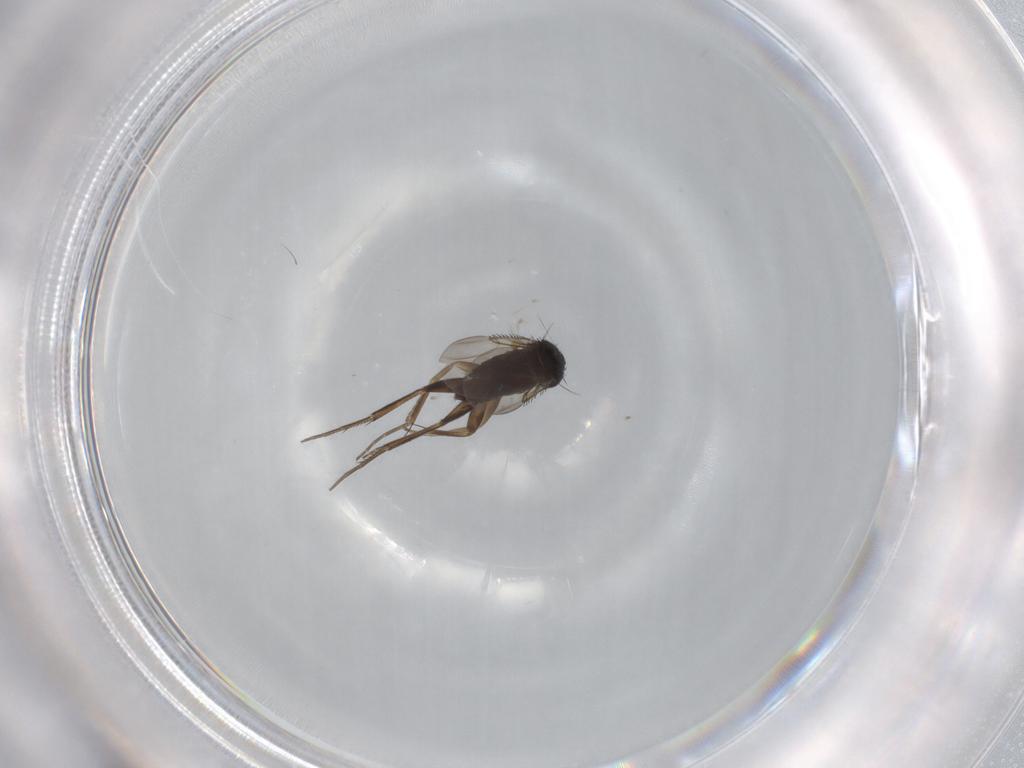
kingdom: Animalia
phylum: Arthropoda
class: Insecta
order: Diptera
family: Phoridae
